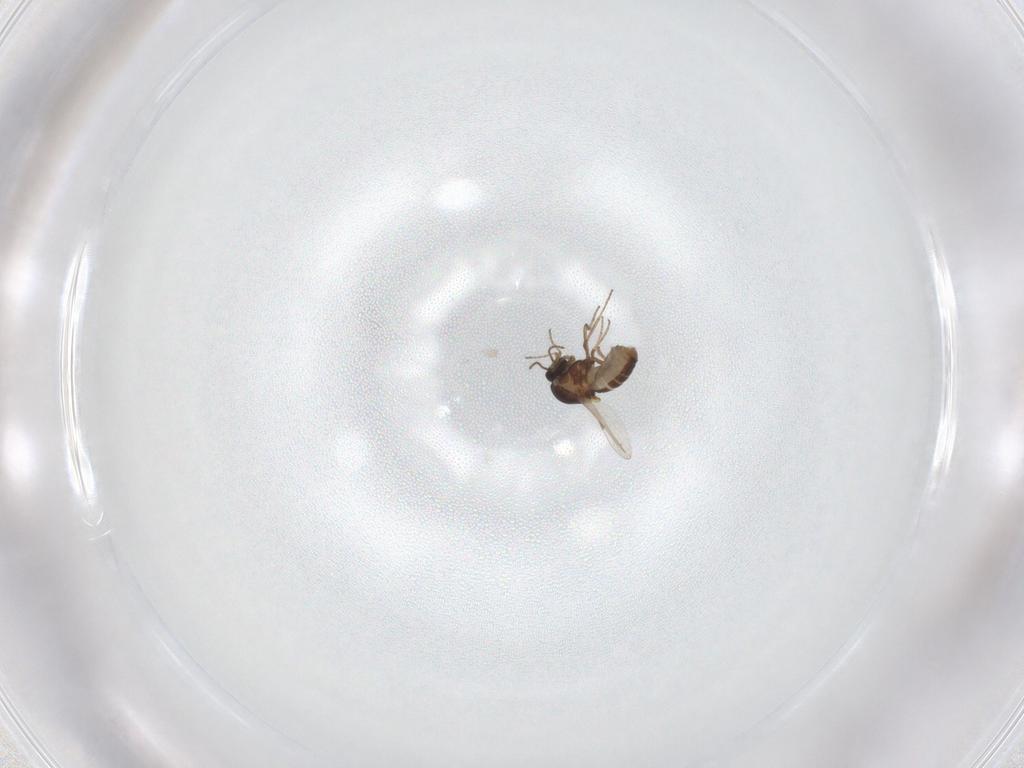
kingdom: Animalia
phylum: Arthropoda
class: Insecta
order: Diptera
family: Ceratopogonidae
